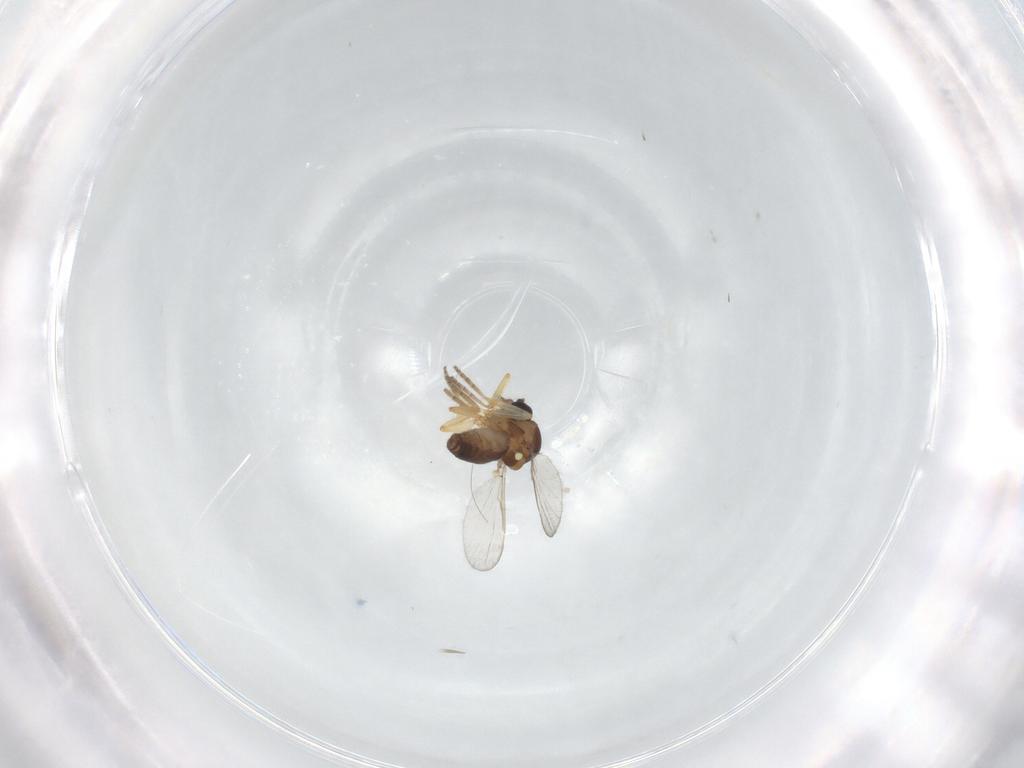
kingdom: Animalia
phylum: Arthropoda
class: Insecta
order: Diptera
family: Ceratopogonidae
